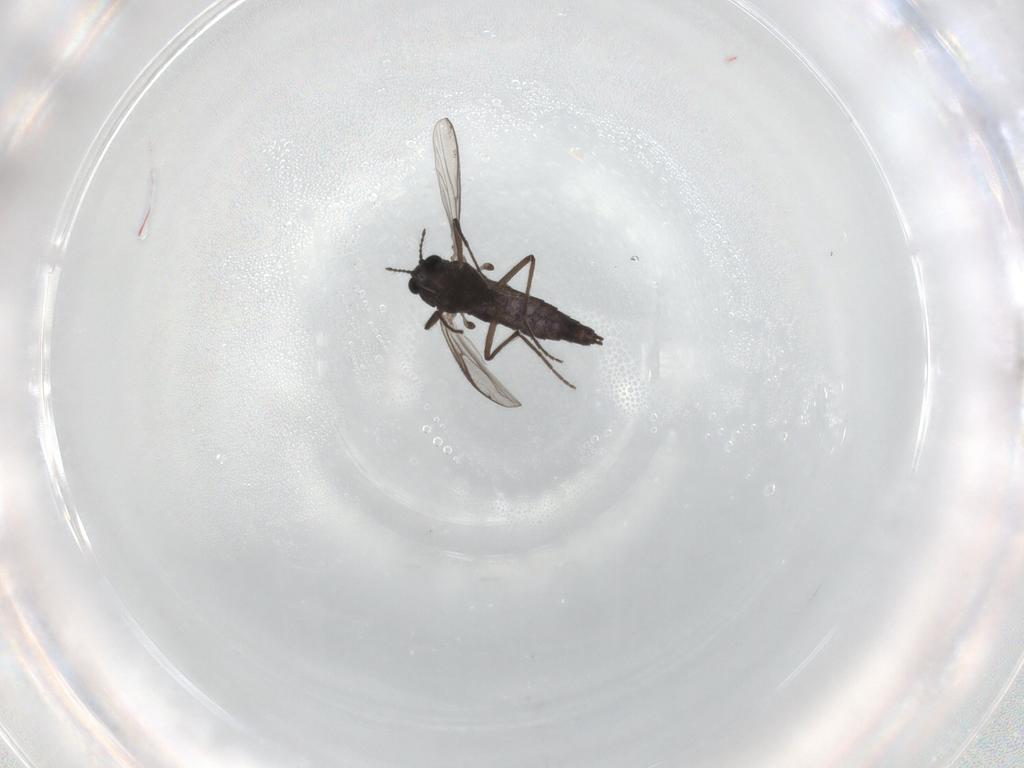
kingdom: Animalia
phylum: Arthropoda
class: Insecta
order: Diptera
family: Chironomidae
